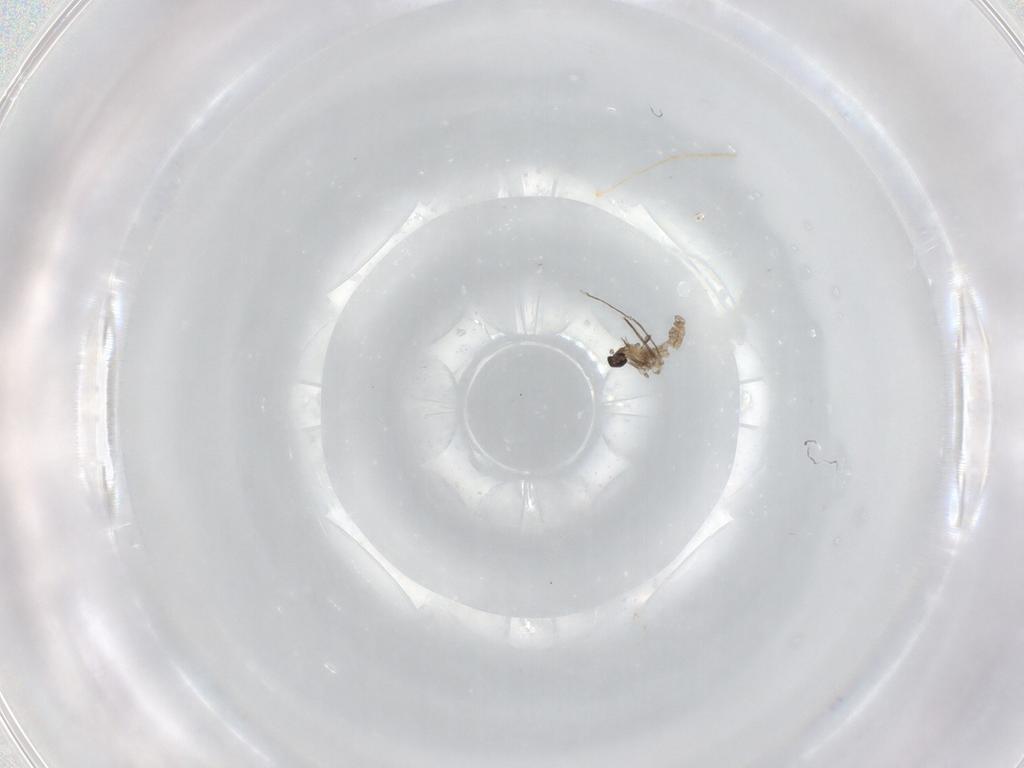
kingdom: Animalia
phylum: Arthropoda
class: Insecta
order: Diptera
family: Cecidomyiidae
